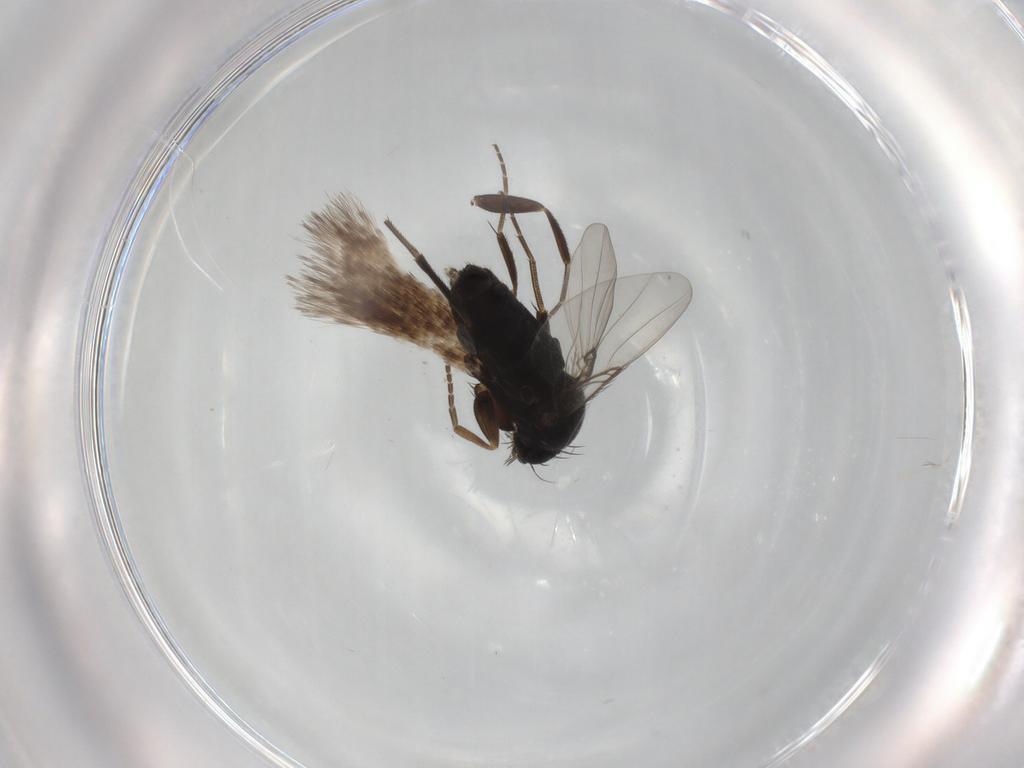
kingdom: Animalia
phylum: Arthropoda
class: Insecta
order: Diptera
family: Phoridae
